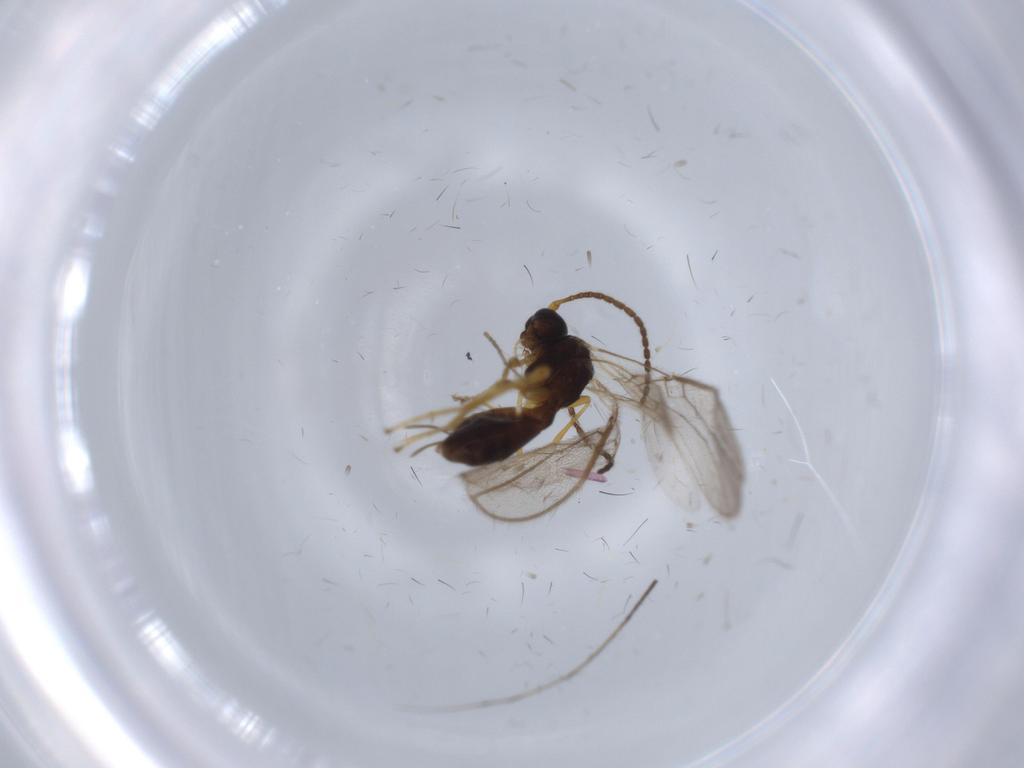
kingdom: Animalia
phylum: Arthropoda
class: Insecta
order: Hymenoptera
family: Braconidae
